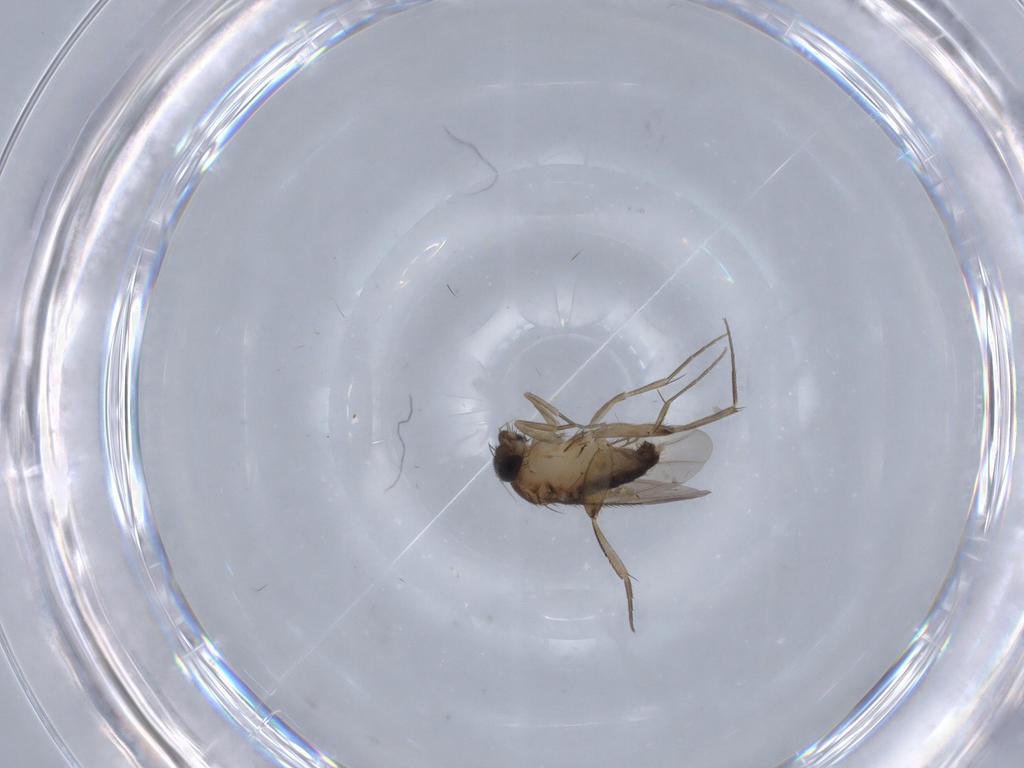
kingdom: Animalia
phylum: Arthropoda
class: Insecta
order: Diptera
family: Phoridae
